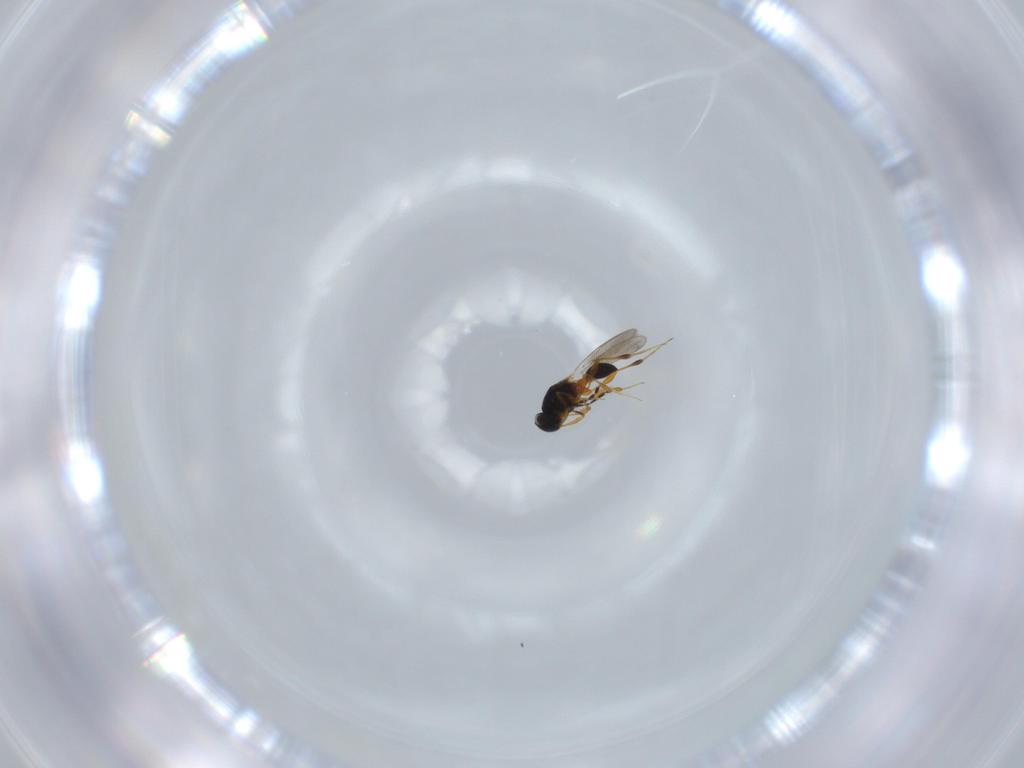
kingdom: Animalia
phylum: Arthropoda
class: Insecta
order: Hymenoptera
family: Platygastridae
